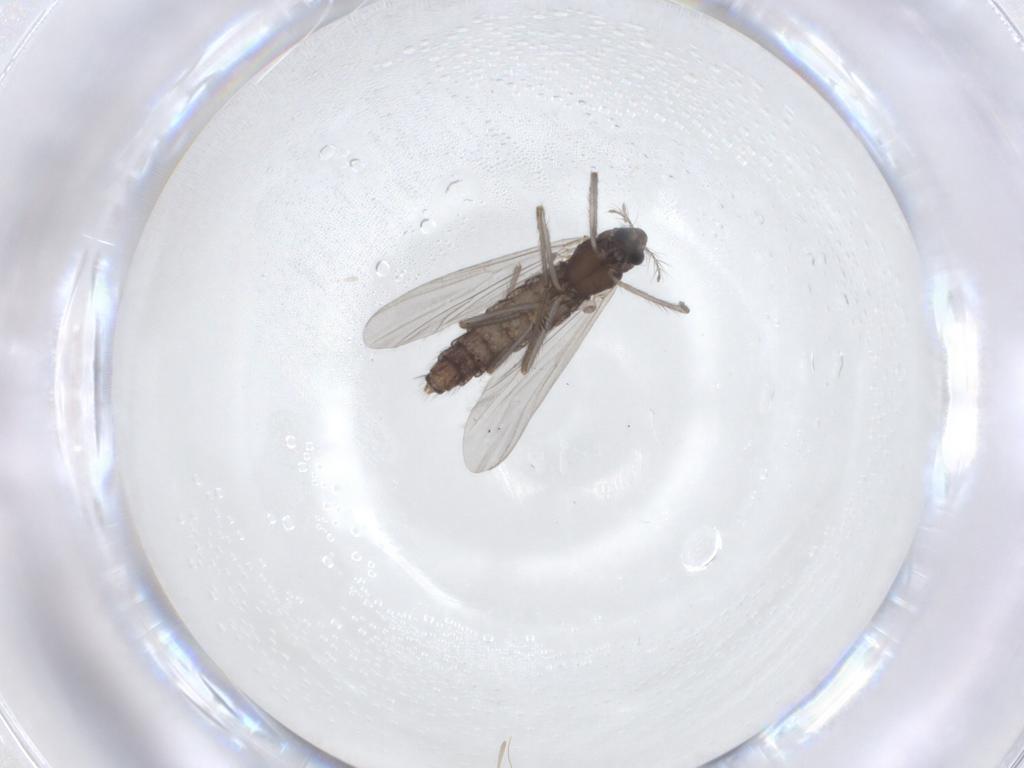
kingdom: Animalia
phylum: Arthropoda
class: Insecta
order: Diptera
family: Chironomidae
